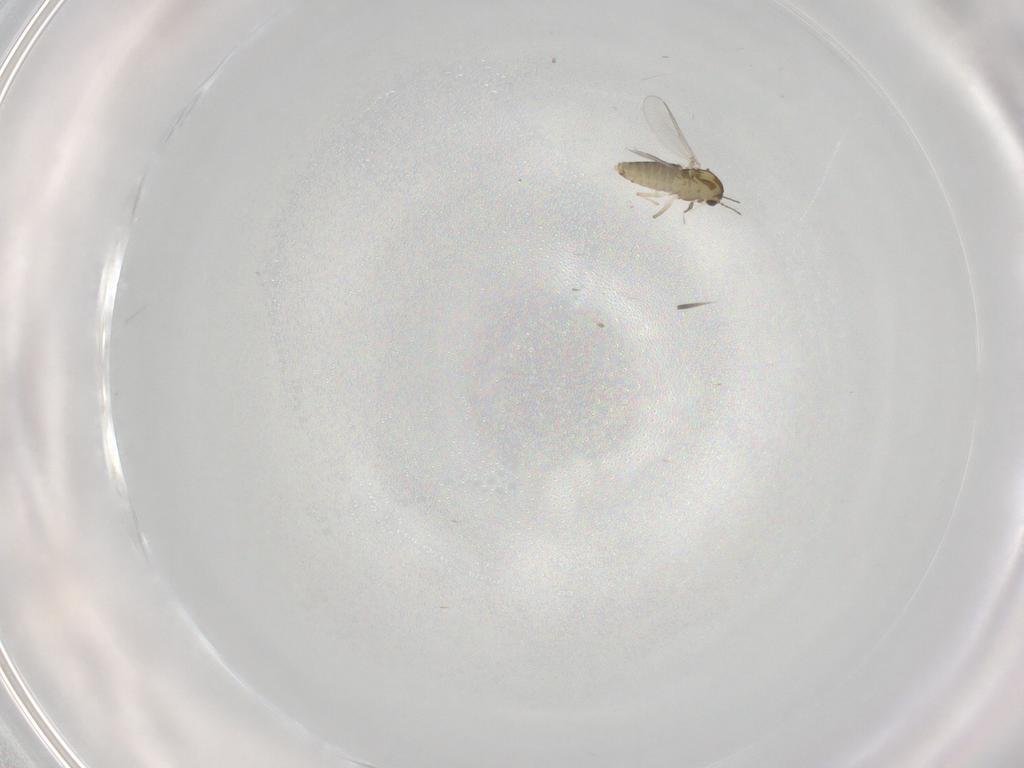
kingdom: Animalia
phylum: Arthropoda
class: Insecta
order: Diptera
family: Chironomidae
